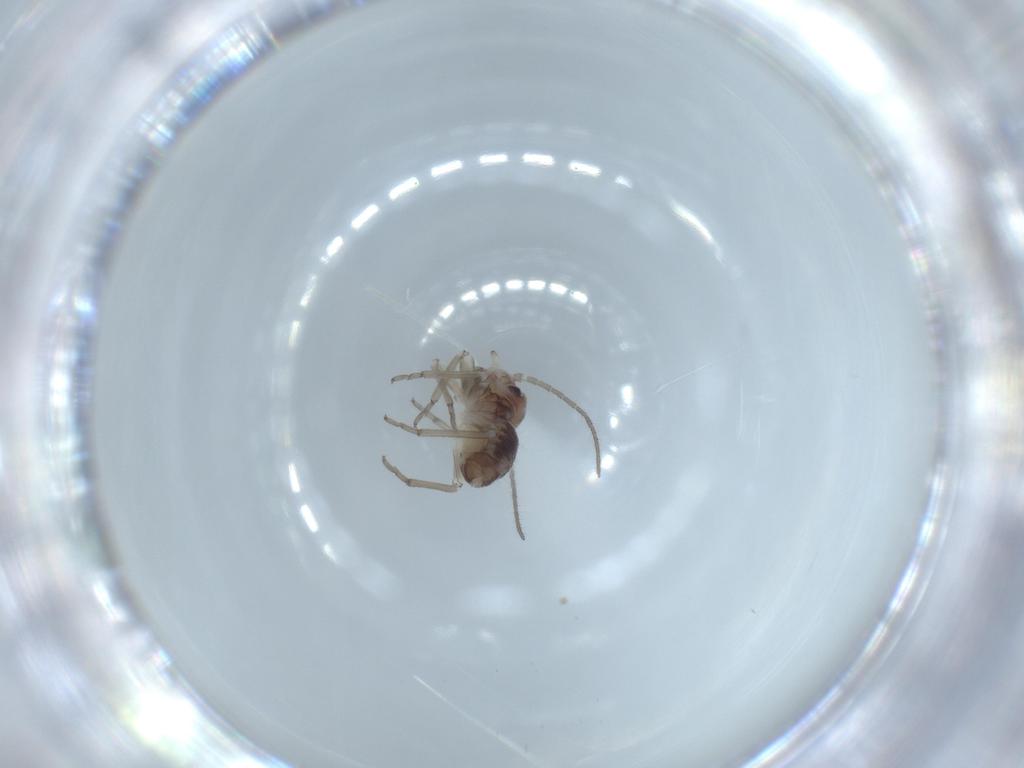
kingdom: Animalia
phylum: Arthropoda
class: Insecta
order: Psocodea
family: Psocidae
